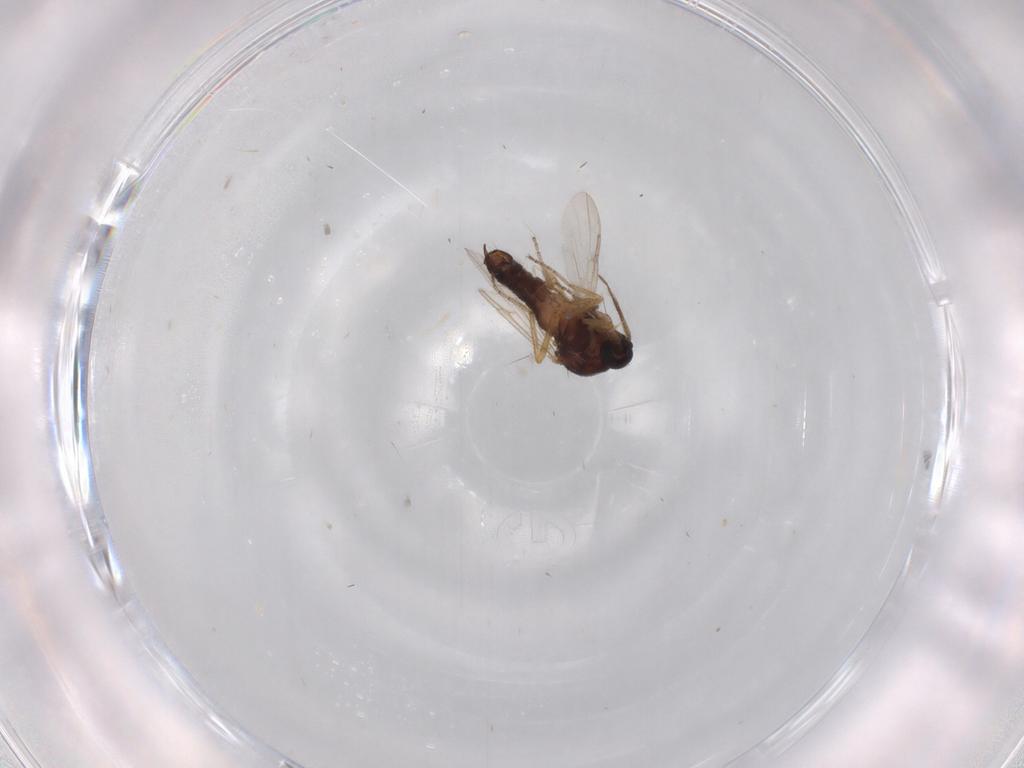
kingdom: Animalia
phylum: Arthropoda
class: Insecta
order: Diptera
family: Ceratopogonidae
